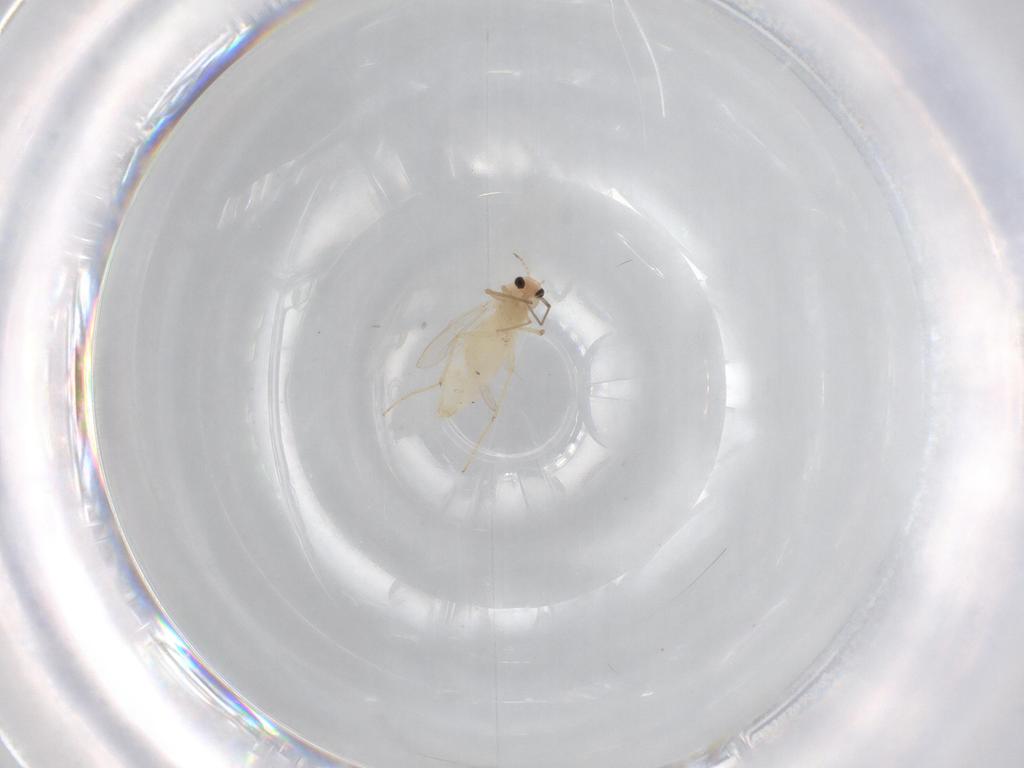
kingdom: Animalia
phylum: Arthropoda
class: Insecta
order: Diptera
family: Chironomidae
